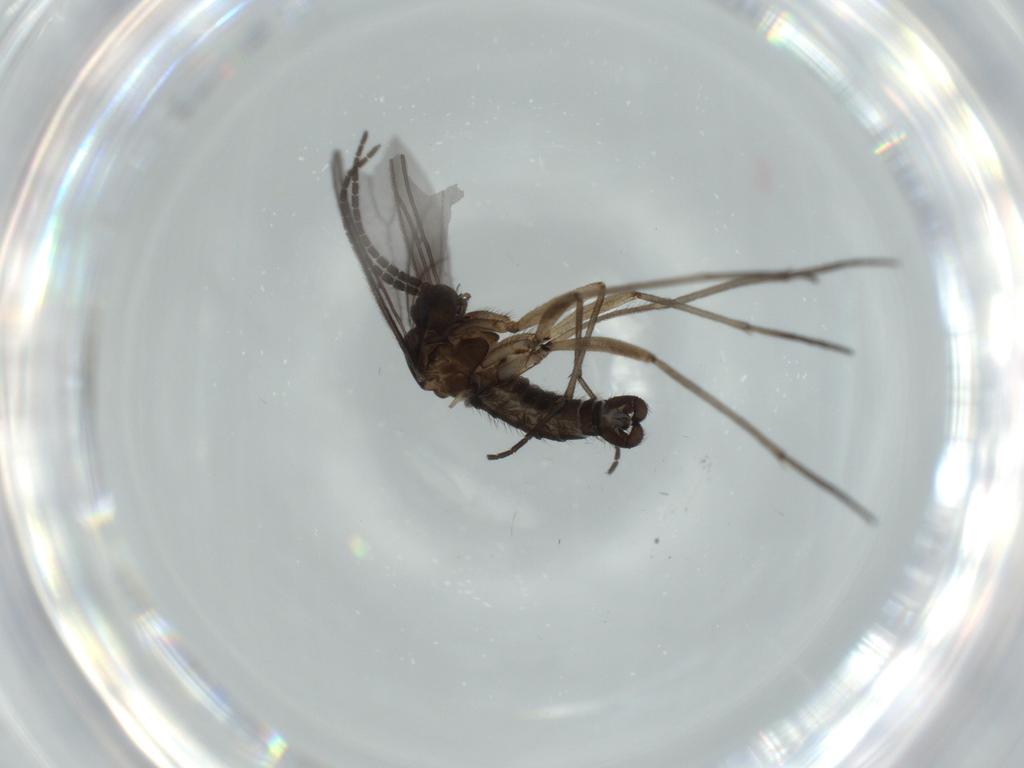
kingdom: Animalia
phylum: Arthropoda
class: Insecta
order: Diptera
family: Sciaridae
